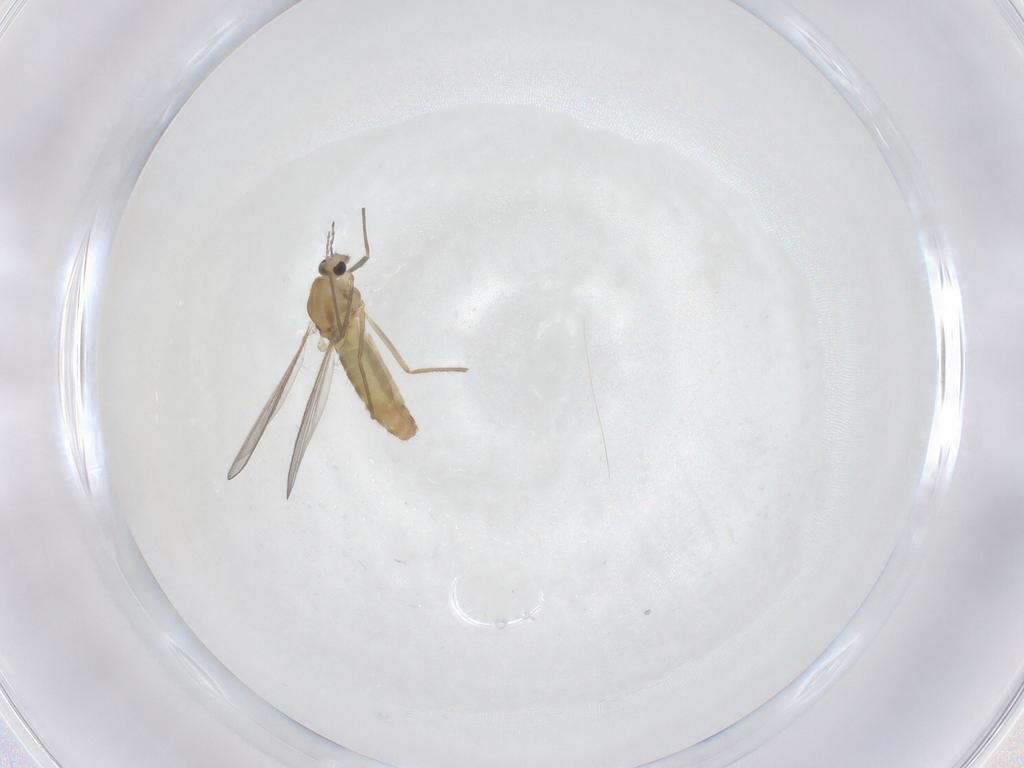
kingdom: Animalia
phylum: Arthropoda
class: Insecta
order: Diptera
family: Chironomidae
